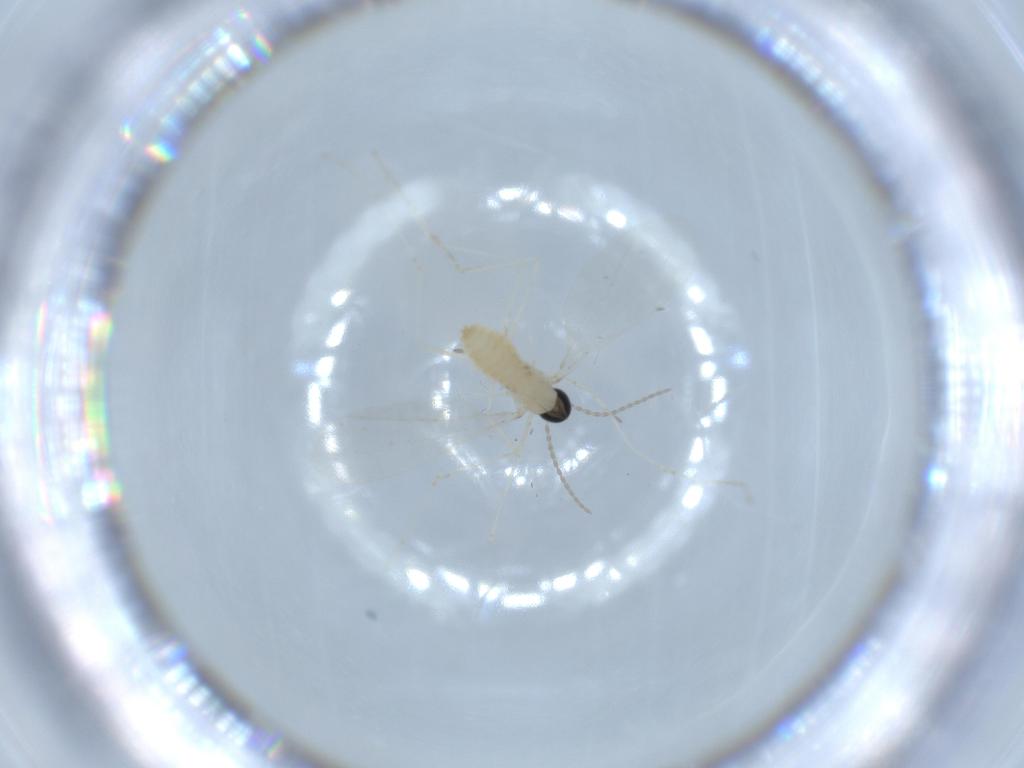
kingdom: Animalia
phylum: Arthropoda
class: Insecta
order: Diptera
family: Cecidomyiidae
